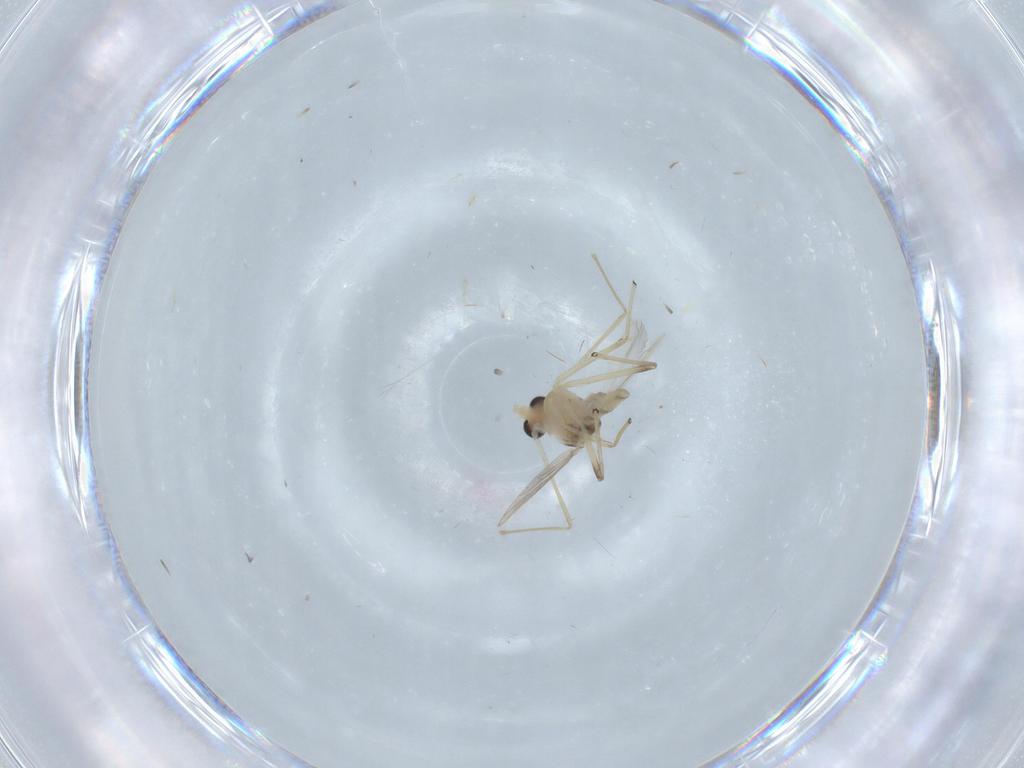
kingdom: Animalia
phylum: Arthropoda
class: Insecta
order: Diptera
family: Chironomidae
